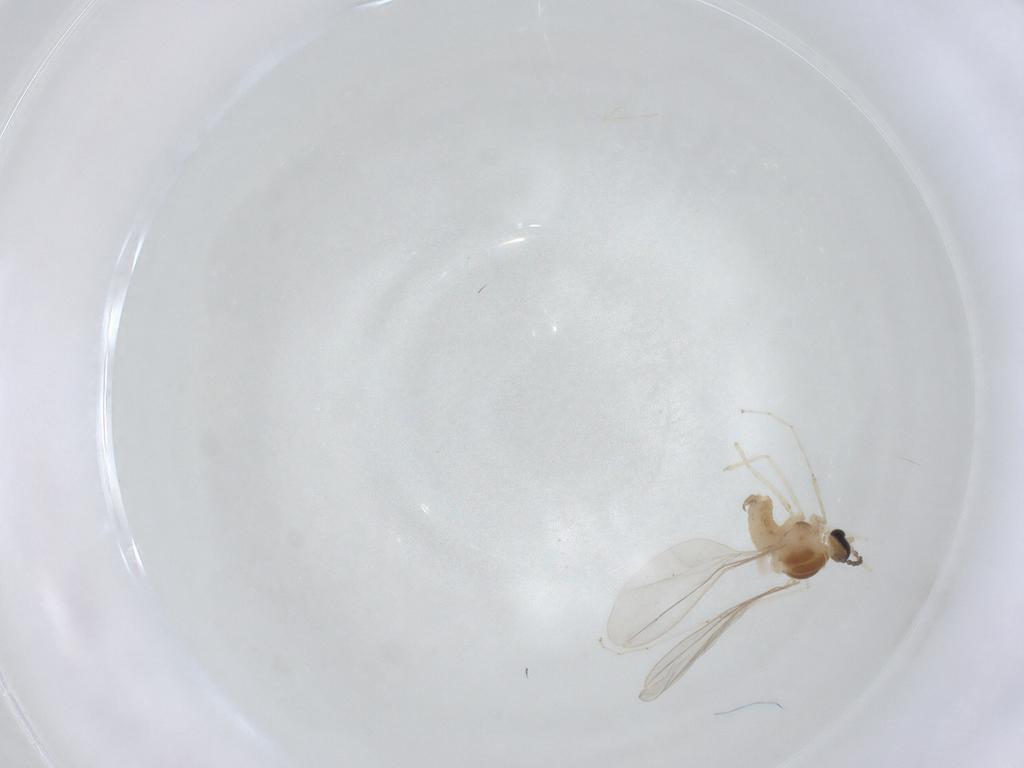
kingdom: Animalia
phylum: Arthropoda
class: Insecta
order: Diptera
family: Cecidomyiidae
